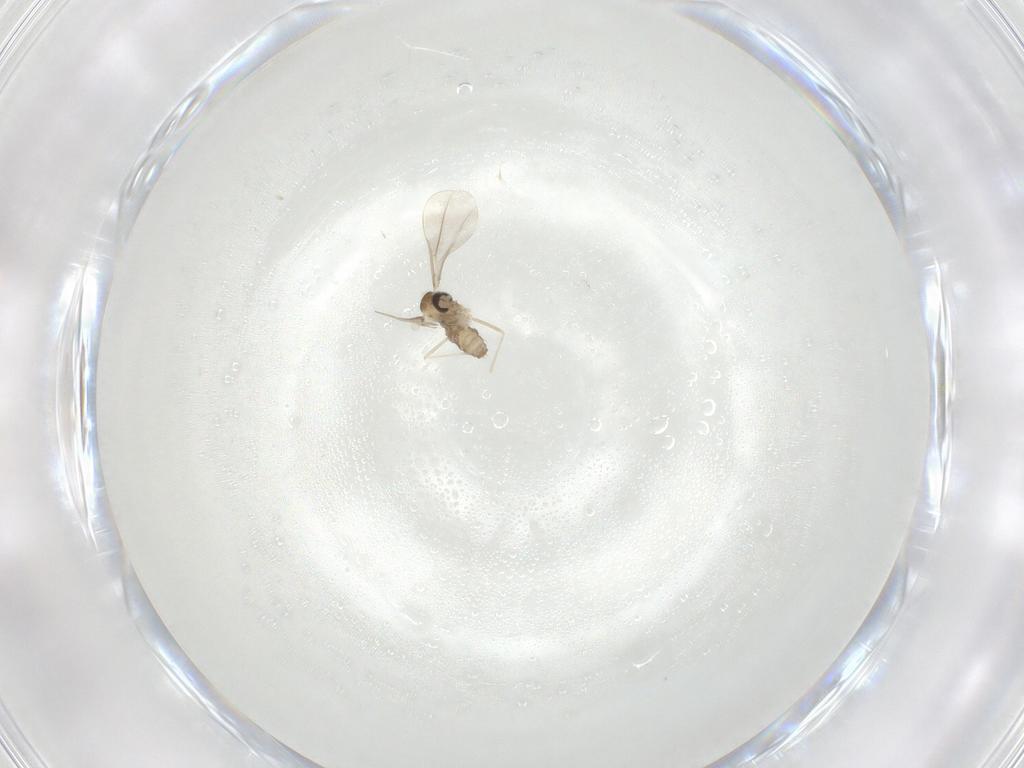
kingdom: Animalia
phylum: Arthropoda
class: Insecta
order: Diptera
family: Cecidomyiidae
